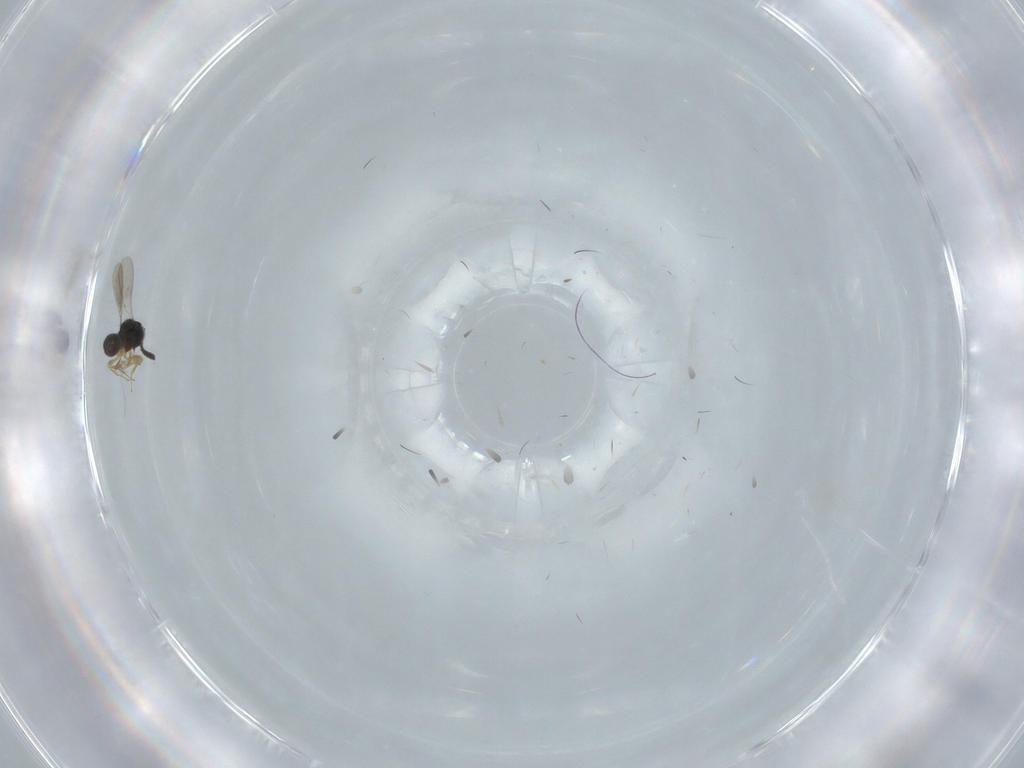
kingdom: Animalia
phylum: Arthropoda
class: Insecta
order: Hymenoptera
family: Scelionidae
